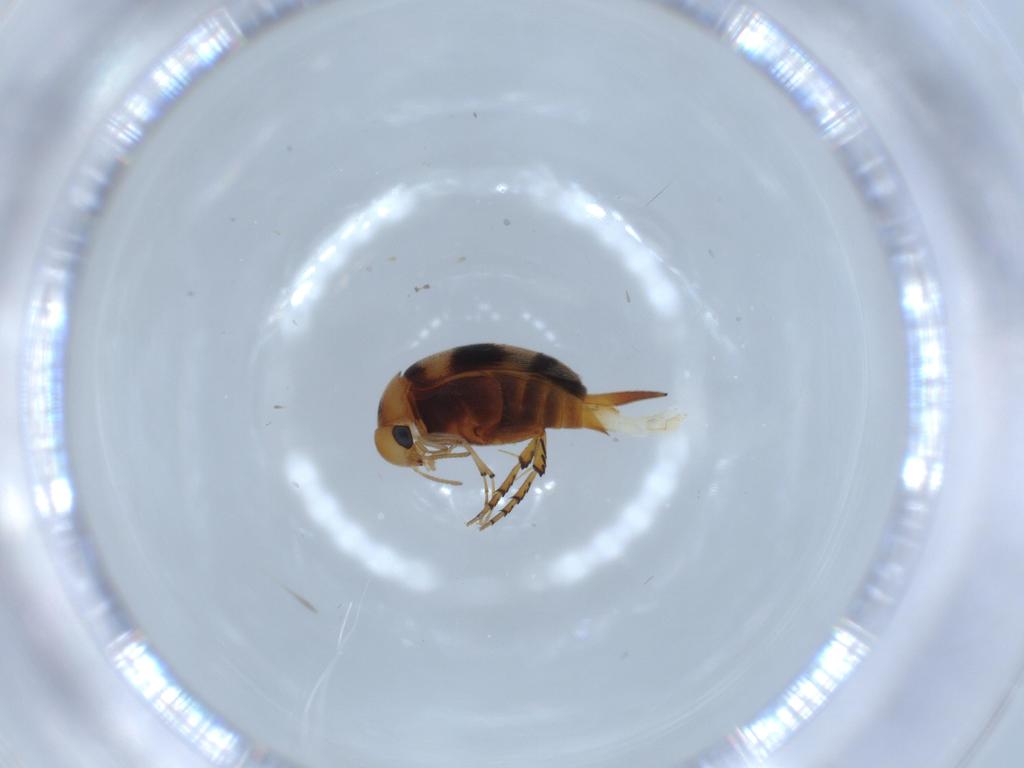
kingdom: Animalia
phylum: Arthropoda
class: Insecta
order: Coleoptera
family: Mordellidae
